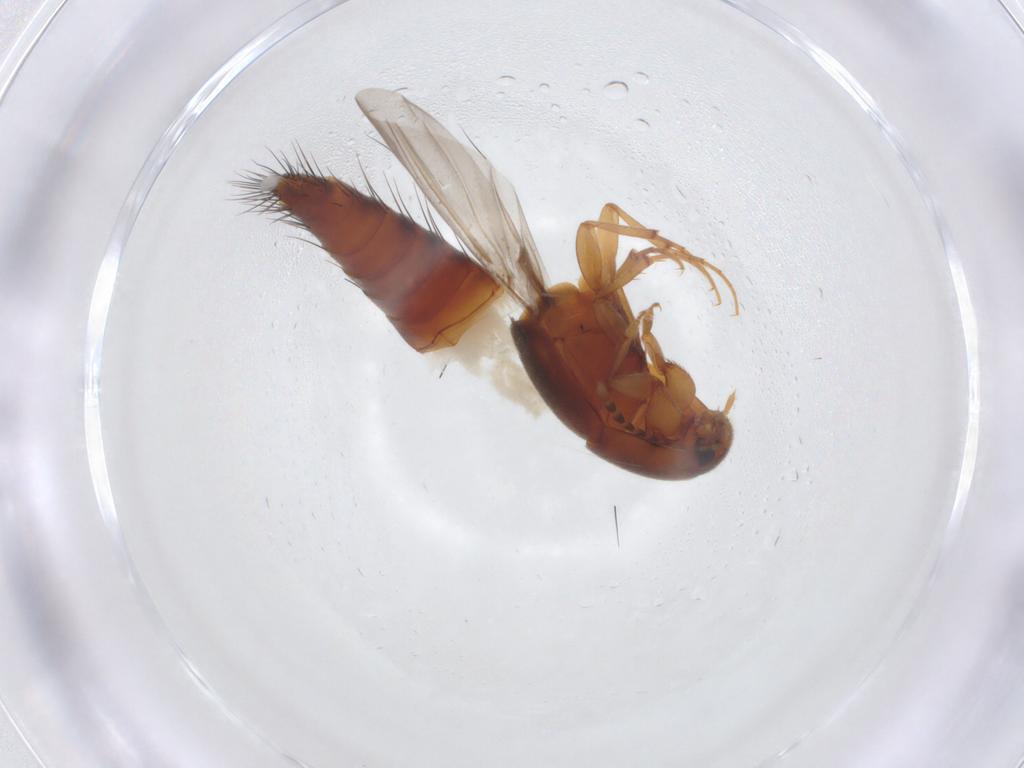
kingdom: Animalia
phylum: Arthropoda
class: Insecta
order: Coleoptera
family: Staphylinidae
